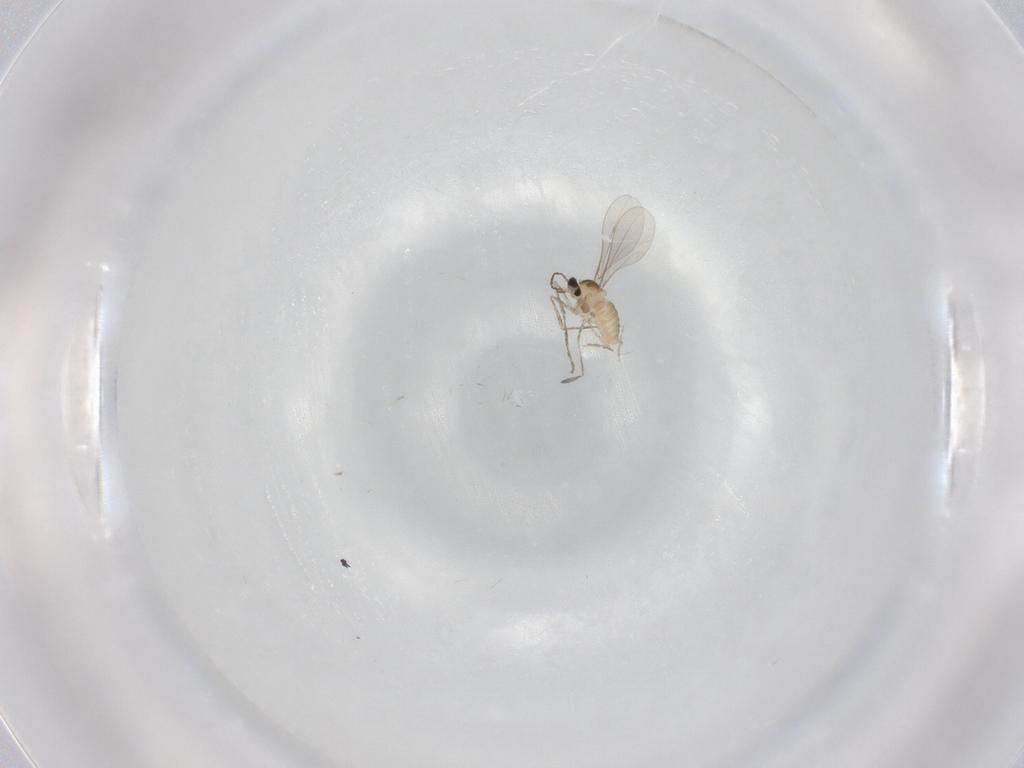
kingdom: Animalia
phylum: Arthropoda
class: Insecta
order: Diptera
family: Cecidomyiidae
